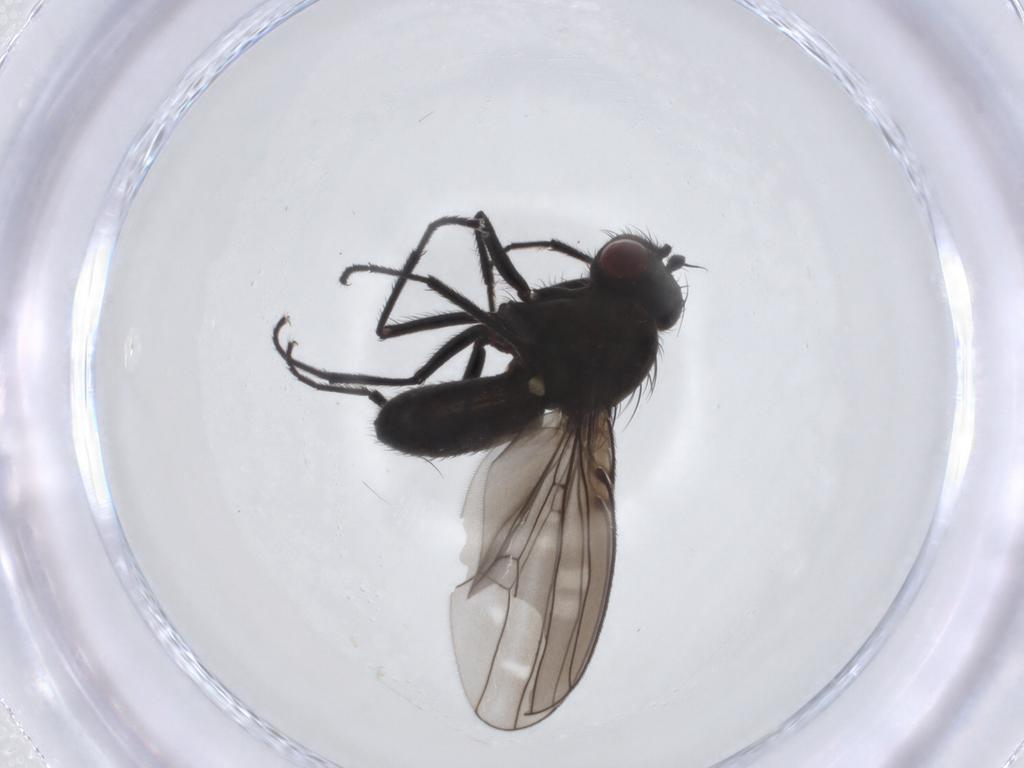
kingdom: Animalia
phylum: Arthropoda
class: Insecta
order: Diptera
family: Ephydridae
